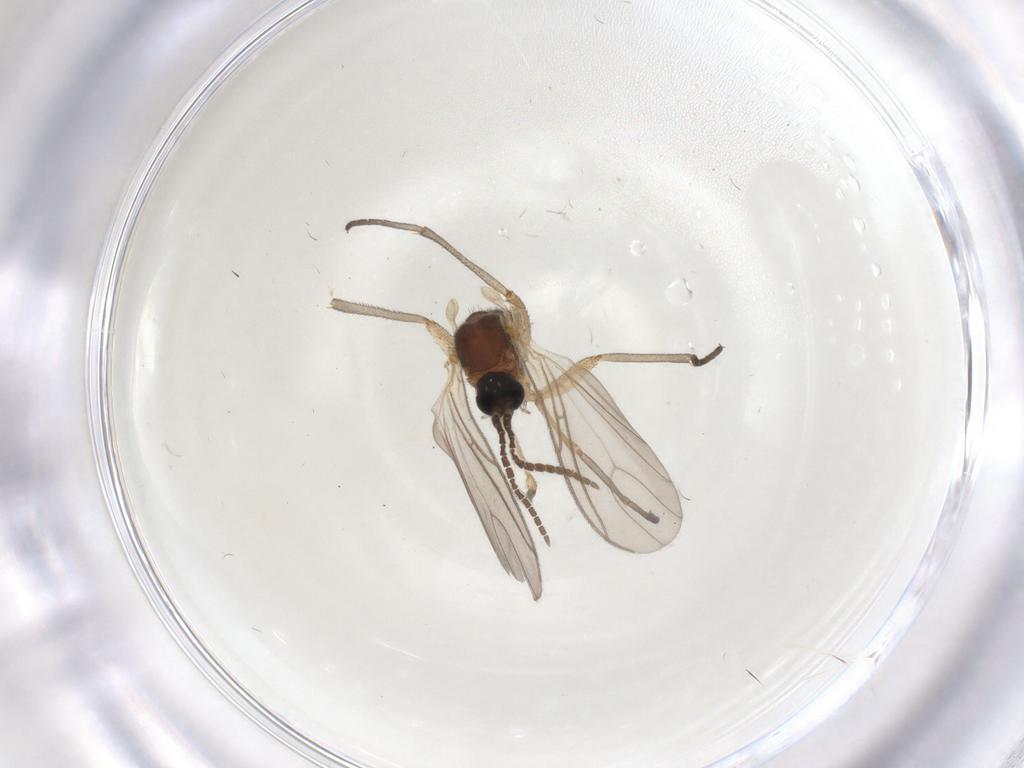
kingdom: Animalia
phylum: Arthropoda
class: Insecta
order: Diptera
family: Sciaridae
